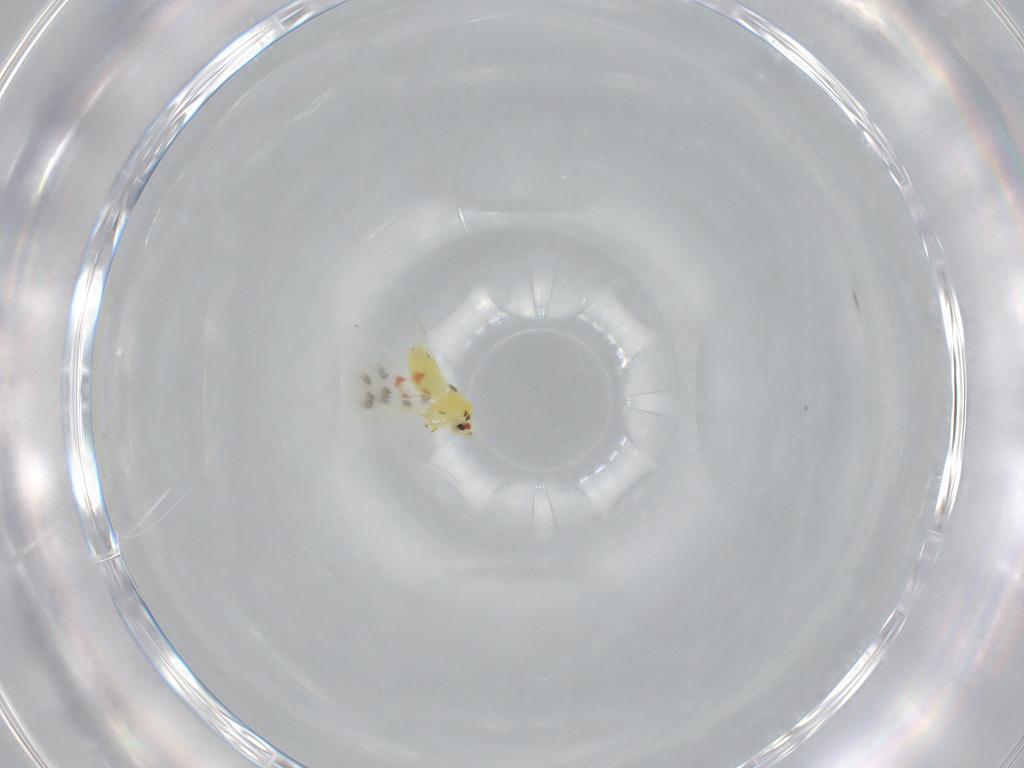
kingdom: Animalia
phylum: Arthropoda
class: Insecta
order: Hemiptera
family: Aleyrodidae
